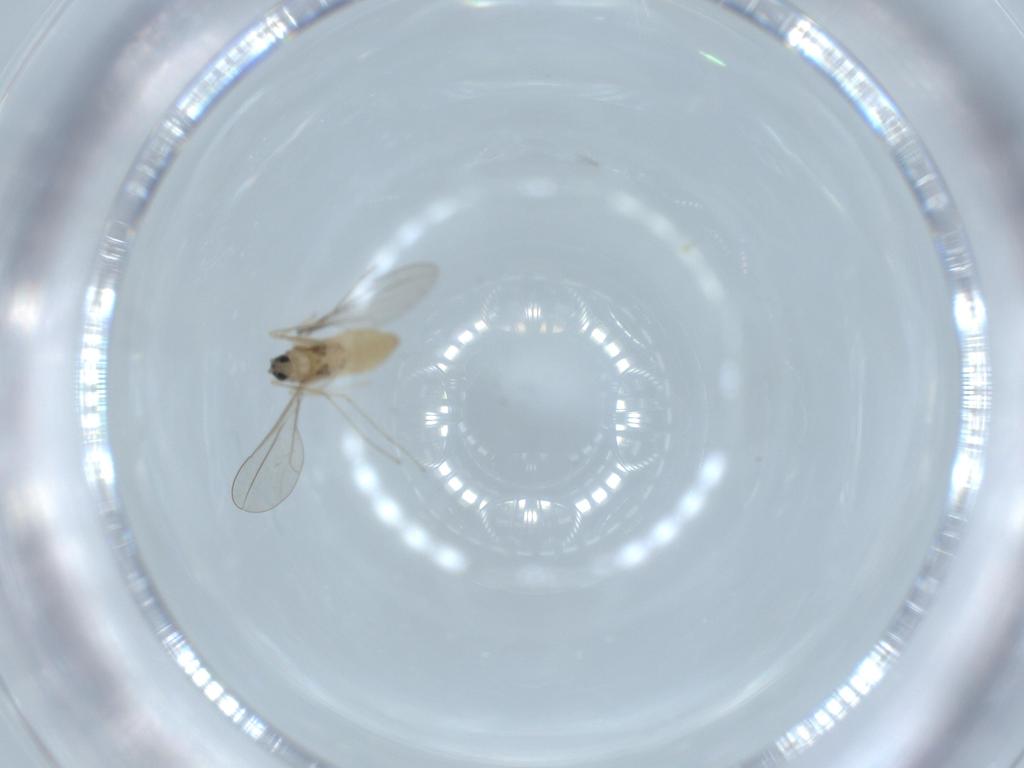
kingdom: Animalia
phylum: Arthropoda
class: Insecta
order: Diptera
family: Cecidomyiidae
